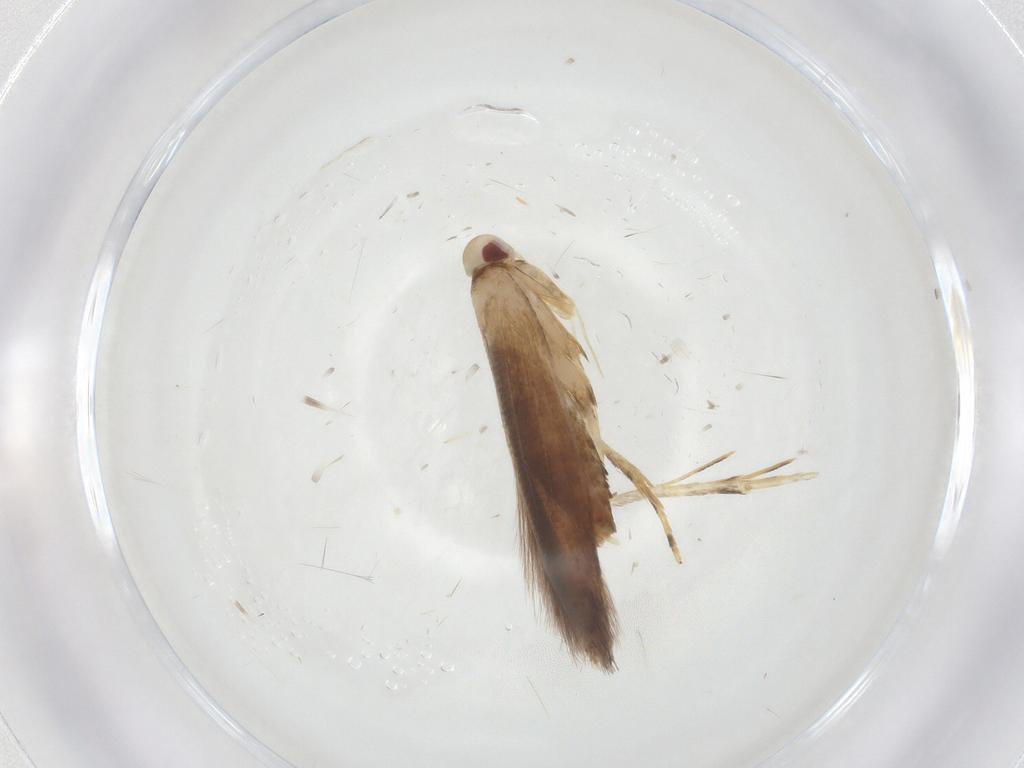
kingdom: Animalia
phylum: Arthropoda
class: Insecta
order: Lepidoptera
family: Cosmopterigidae
